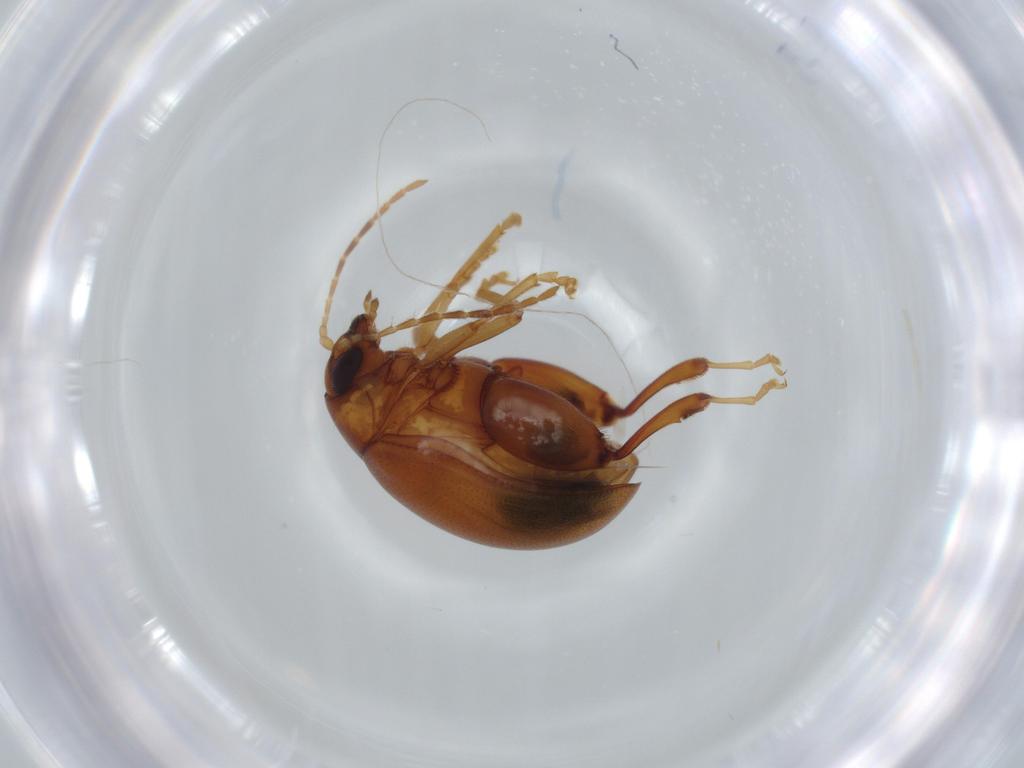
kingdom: Animalia
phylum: Arthropoda
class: Insecta
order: Coleoptera
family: Chrysomelidae
